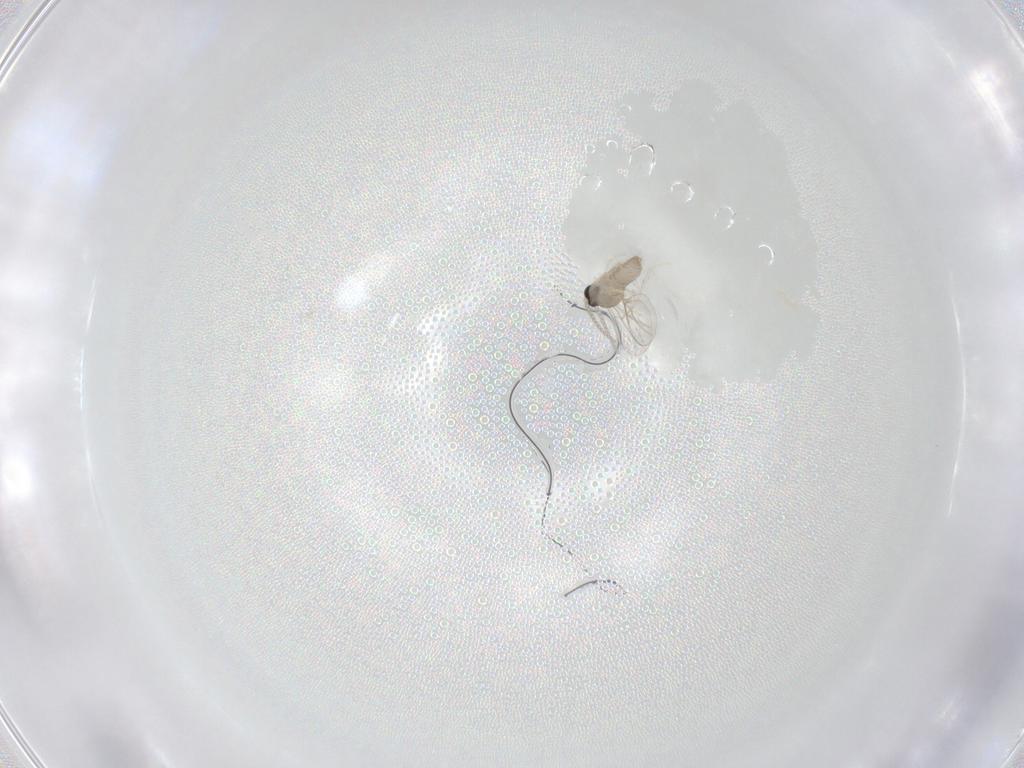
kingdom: Animalia
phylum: Arthropoda
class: Insecta
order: Diptera
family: Cecidomyiidae
